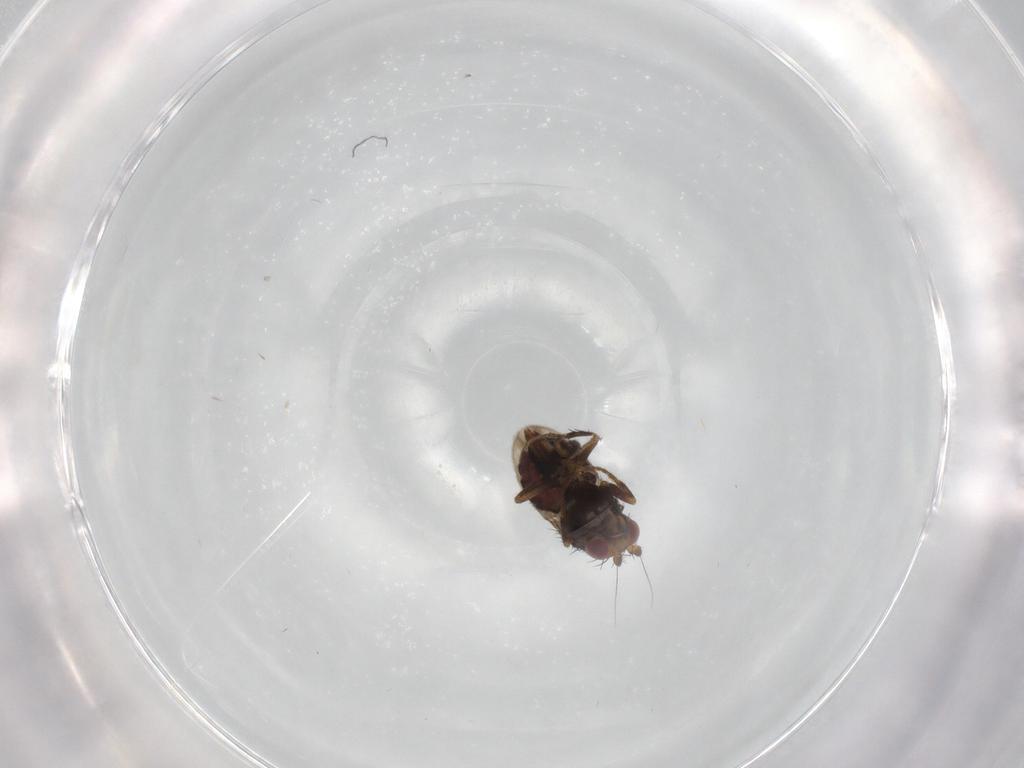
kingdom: Animalia
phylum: Arthropoda
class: Insecta
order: Diptera
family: Sphaeroceridae
